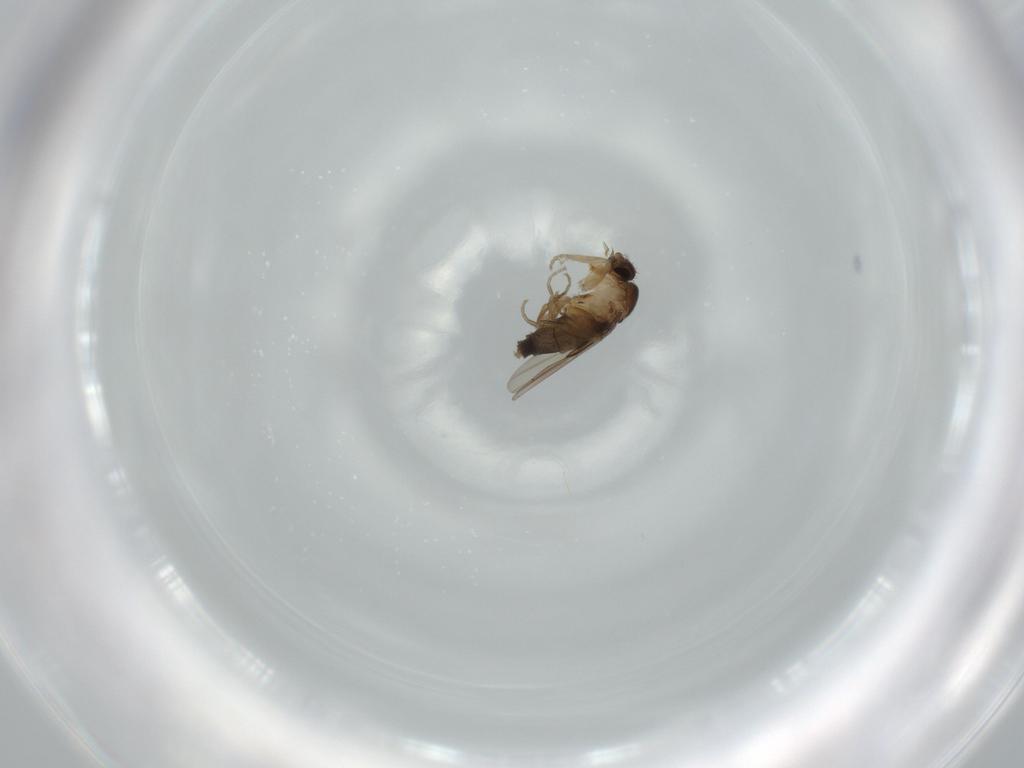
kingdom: Animalia
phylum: Arthropoda
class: Insecta
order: Diptera
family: Phoridae
